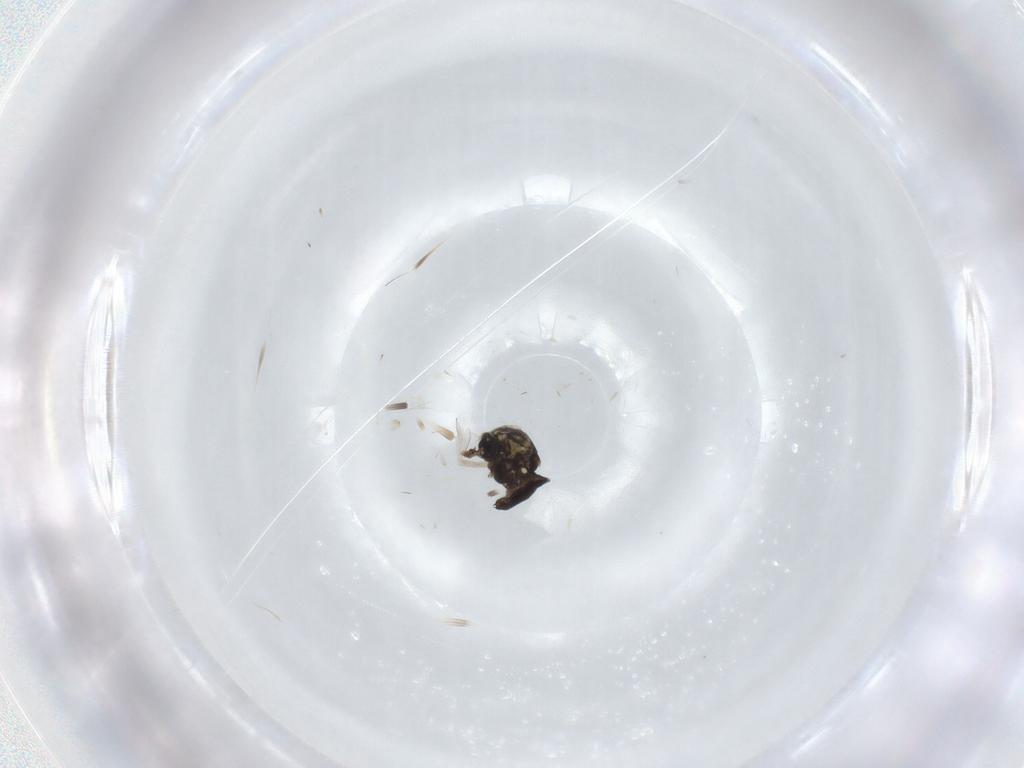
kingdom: Animalia
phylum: Arthropoda
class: Insecta
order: Diptera
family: Ceratopogonidae
